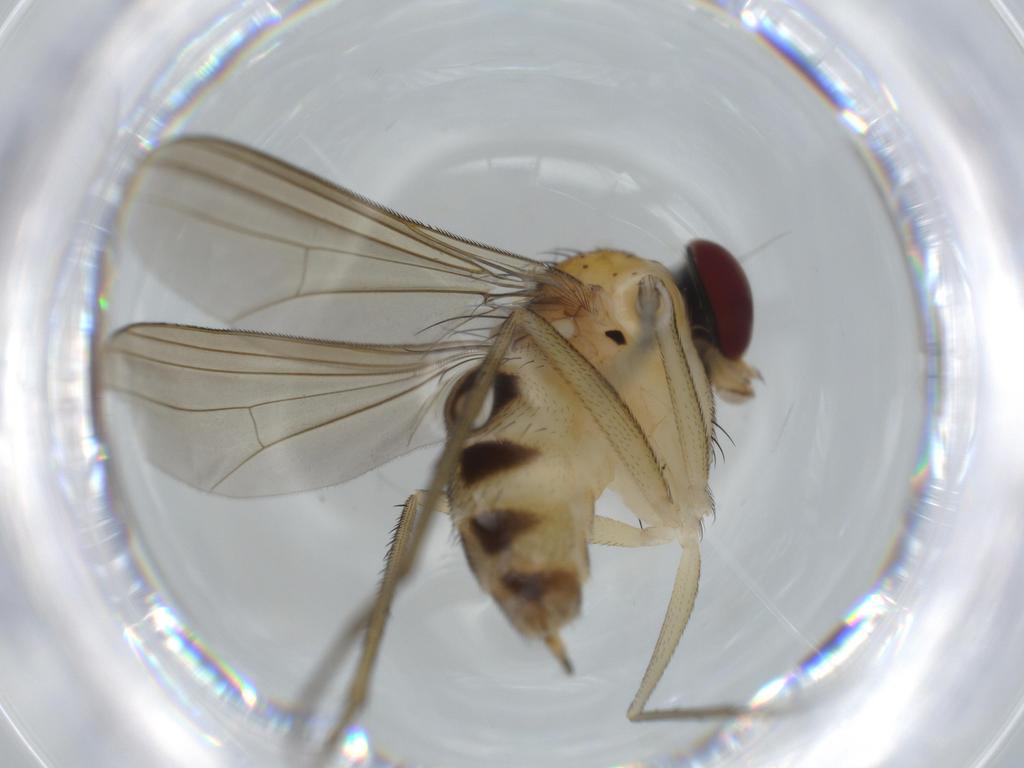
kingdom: Animalia
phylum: Arthropoda
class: Insecta
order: Diptera
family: Dolichopodidae
